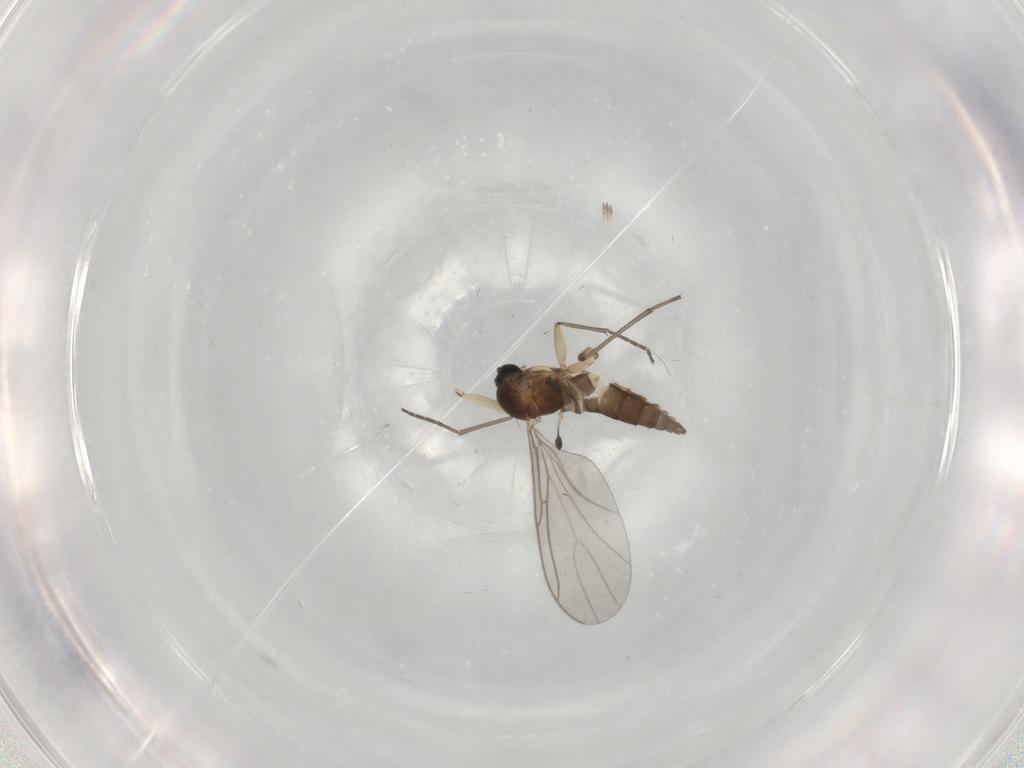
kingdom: Animalia
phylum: Arthropoda
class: Insecta
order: Diptera
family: Sciaridae
